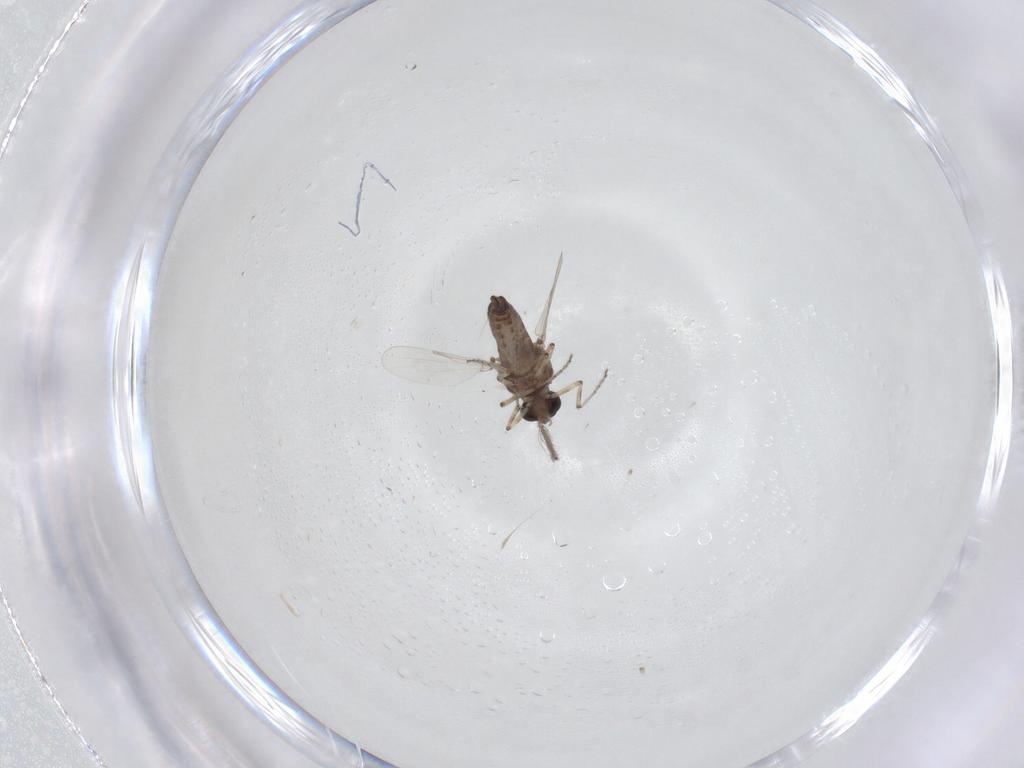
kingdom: Animalia
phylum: Arthropoda
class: Insecta
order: Diptera
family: Ceratopogonidae
